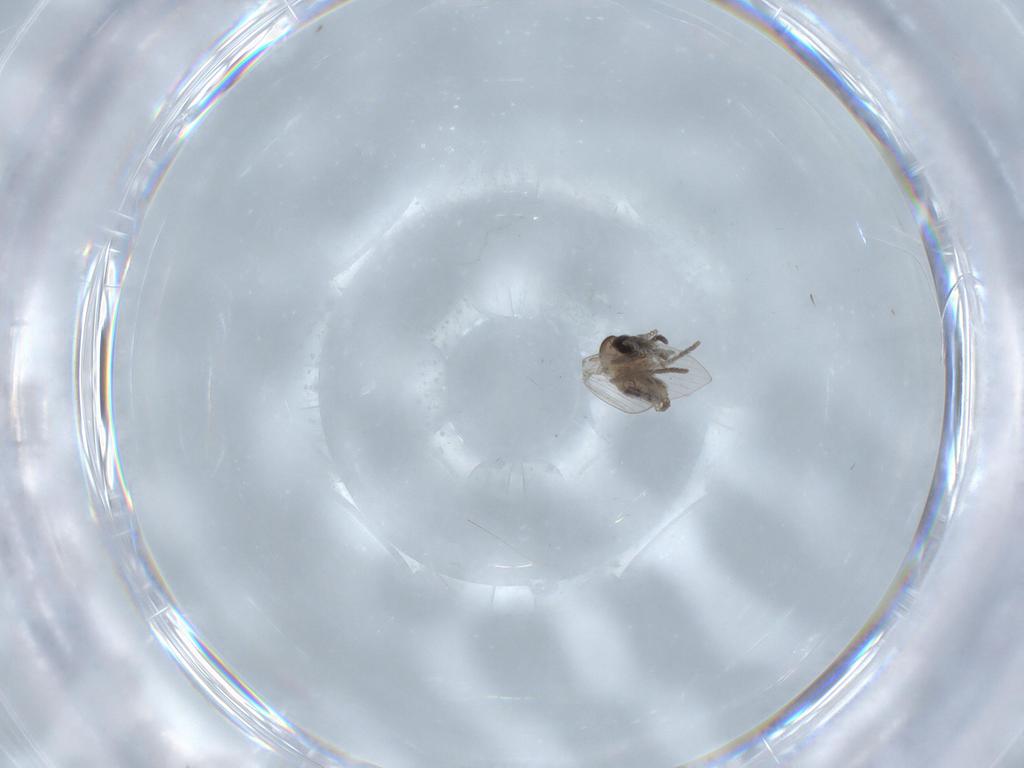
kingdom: Animalia
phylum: Arthropoda
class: Insecta
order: Diptera
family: Psychodidae
